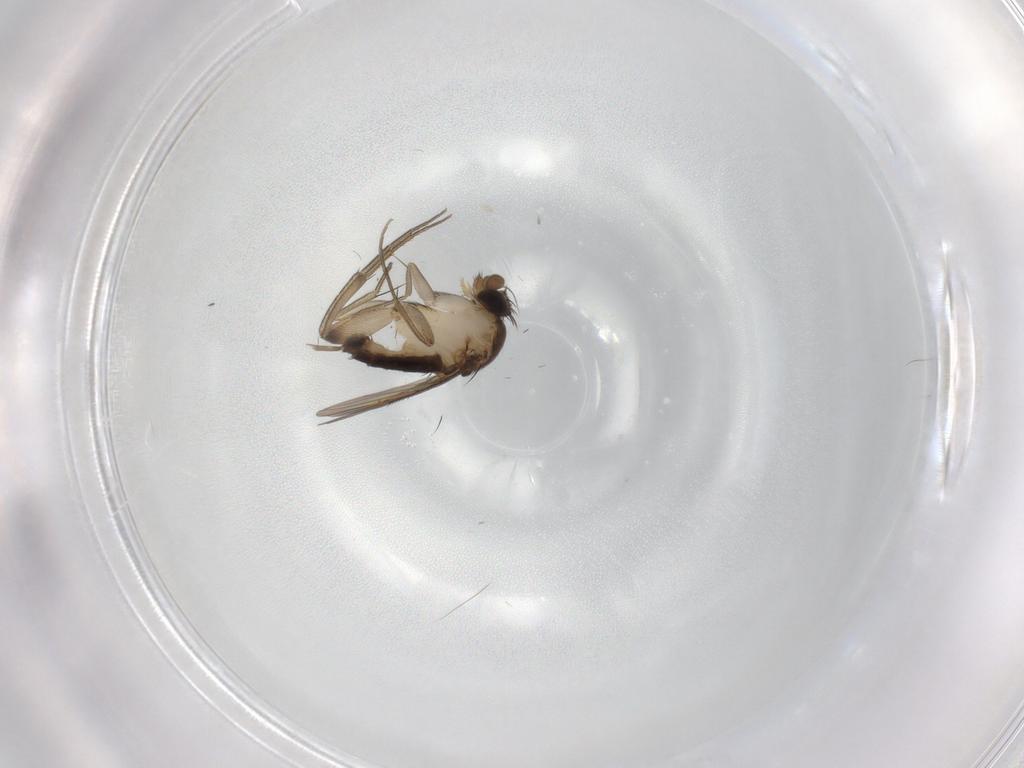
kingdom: Animalia
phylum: Arthropoda
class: Insecta
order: Diptera
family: Phoridae
